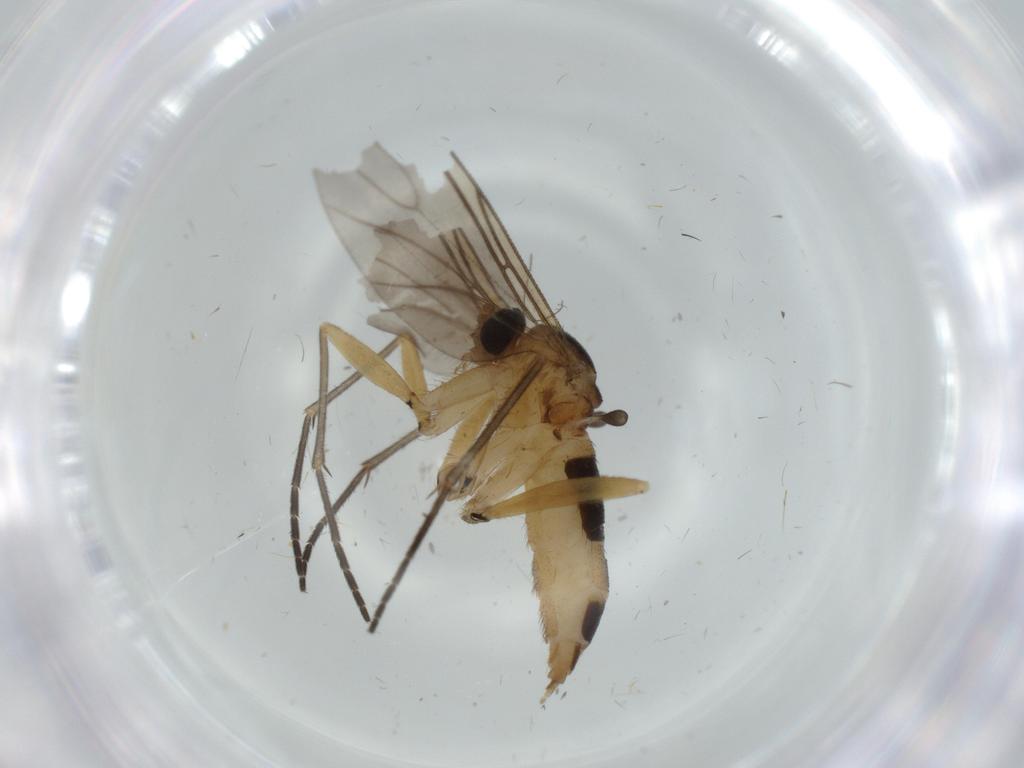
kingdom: Animalia
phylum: Arthropoda
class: Insecta
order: Diptera
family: Sciaridae
